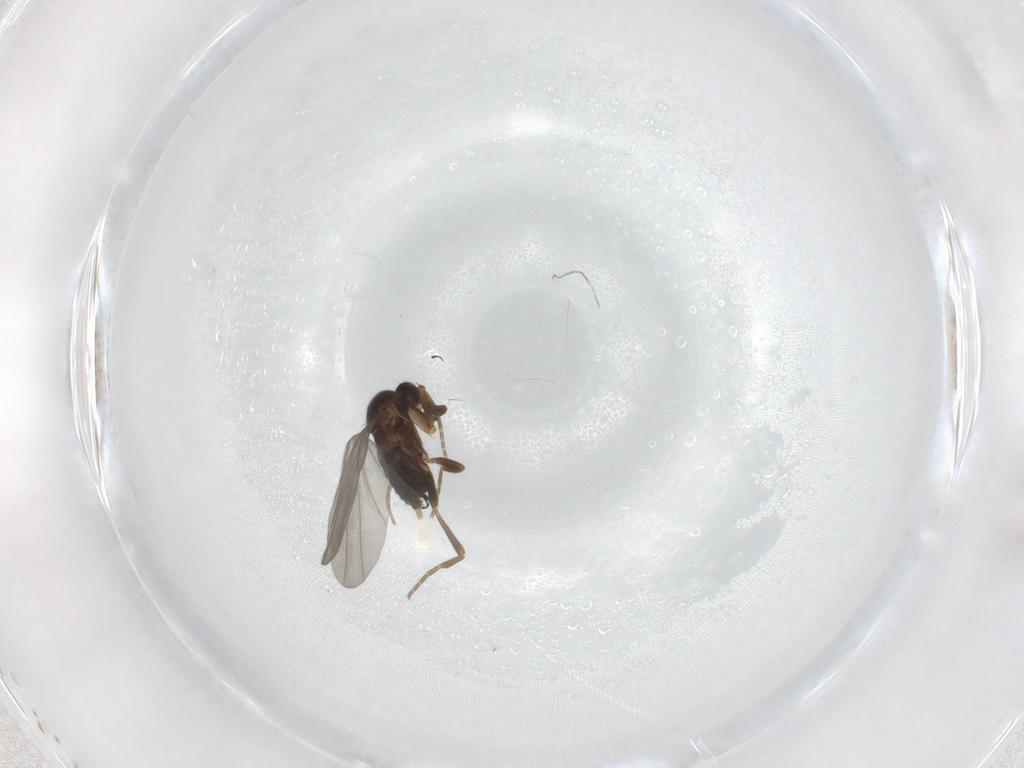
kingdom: Animalia
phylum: Arthropoda
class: Insecta
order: Diptera
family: Chironomidae
